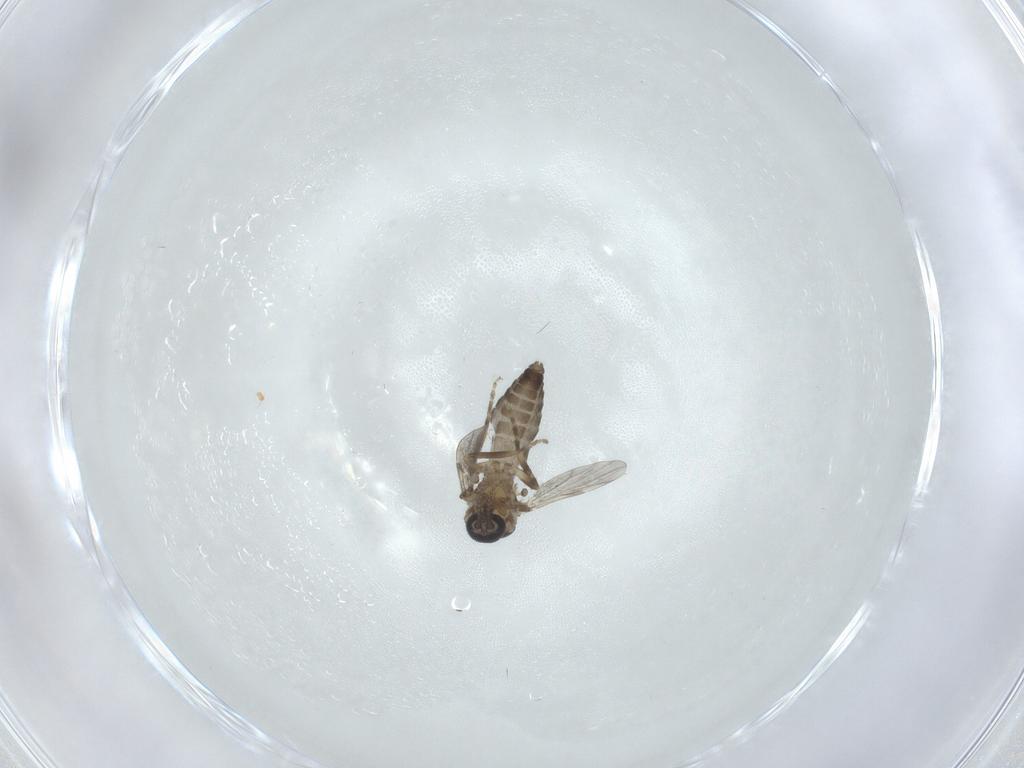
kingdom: Animalia
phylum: Arthropoda
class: Insecta
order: Diptera
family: Ceratopogonidae
